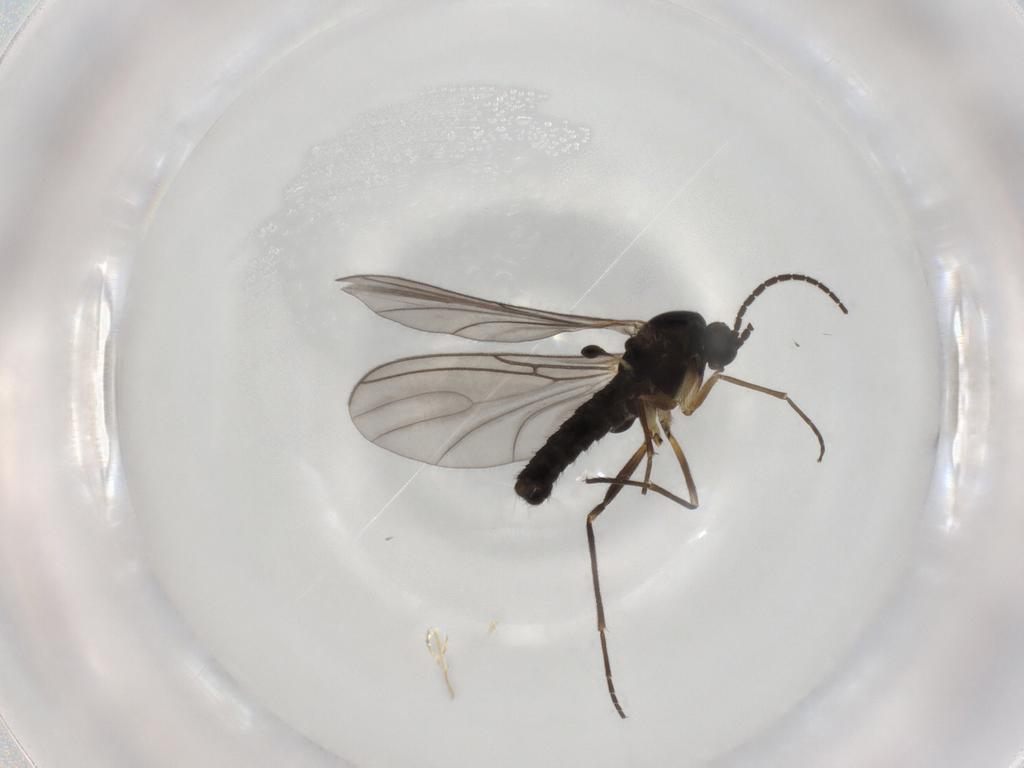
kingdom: Animalia
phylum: Arthropoda
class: Insecta
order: Diptera
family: Sciaridae
